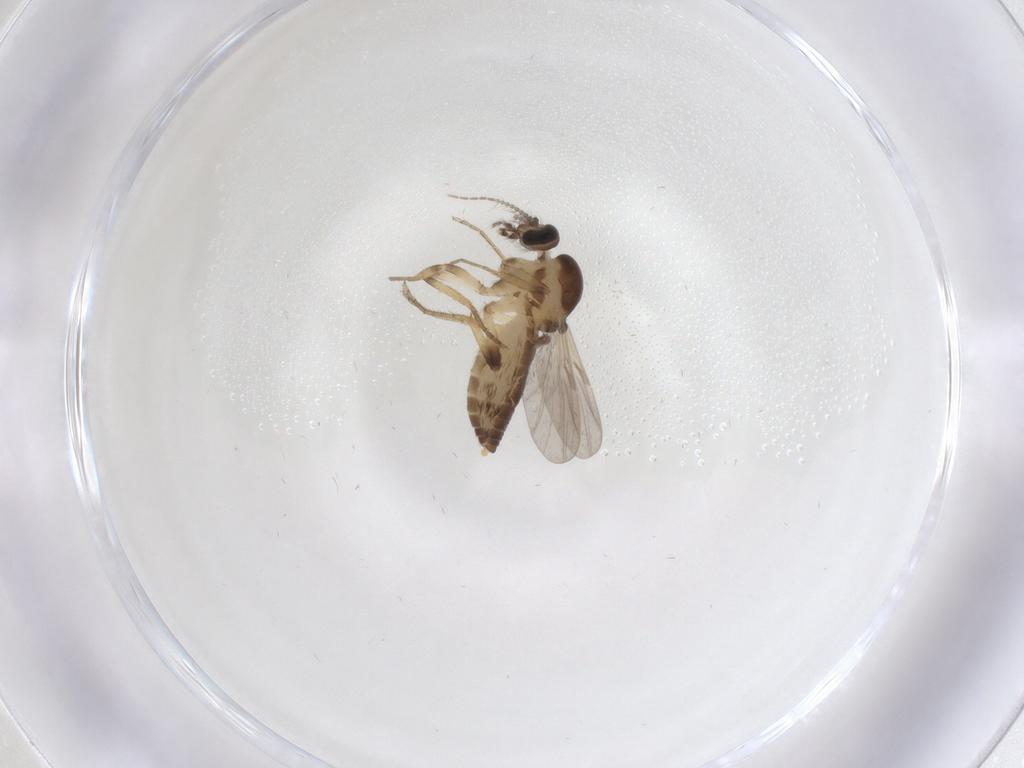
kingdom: Animalia
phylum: Arthropoda
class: Insecta
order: Diptera
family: Ceratopogonidae
